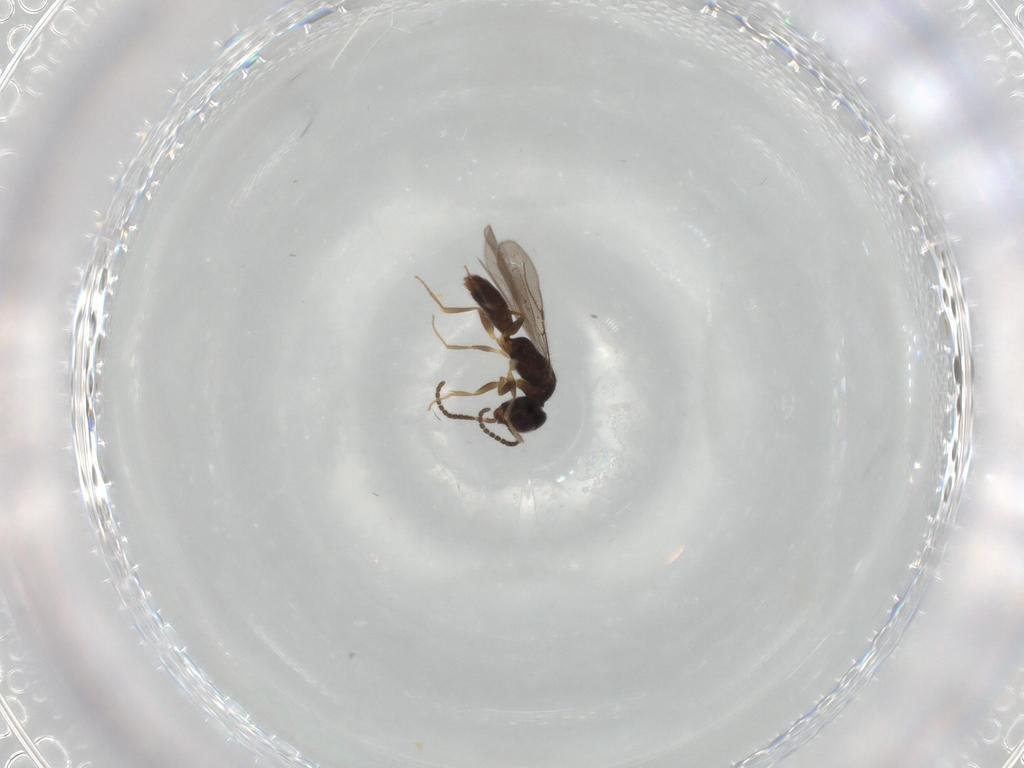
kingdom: Animalia
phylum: Arthropoda
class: Insecta
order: Hymenoptera
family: Bethylidae
